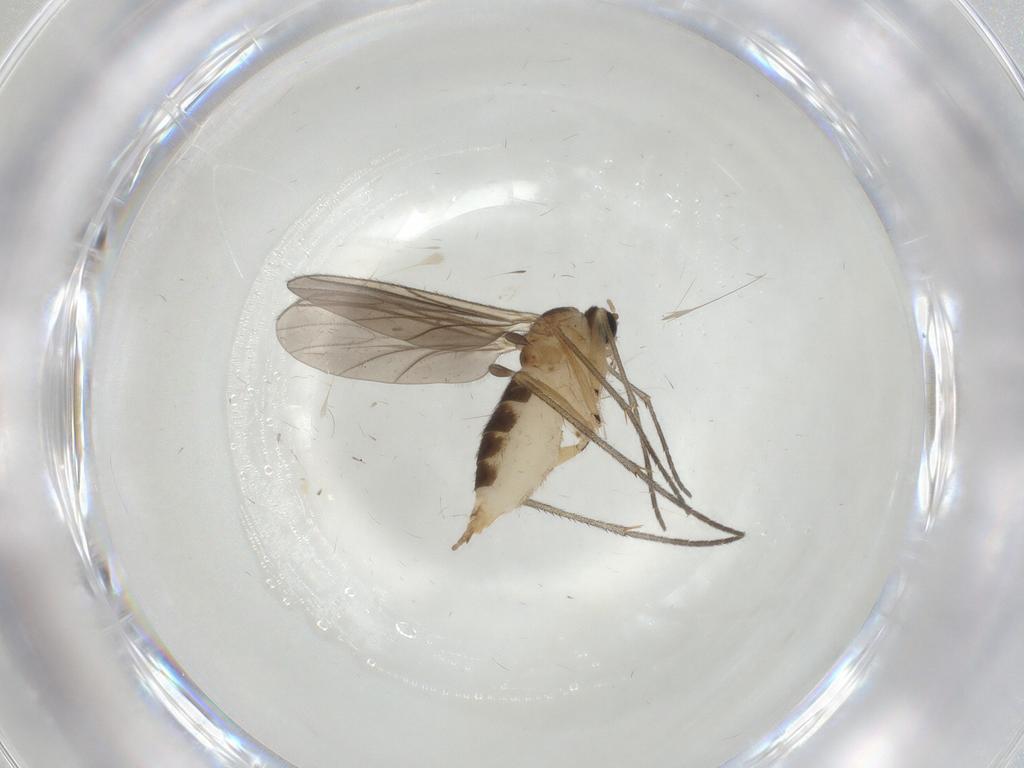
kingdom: Animalia
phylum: Arthropoda
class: Insecta
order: Diptera
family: Sciaridae
